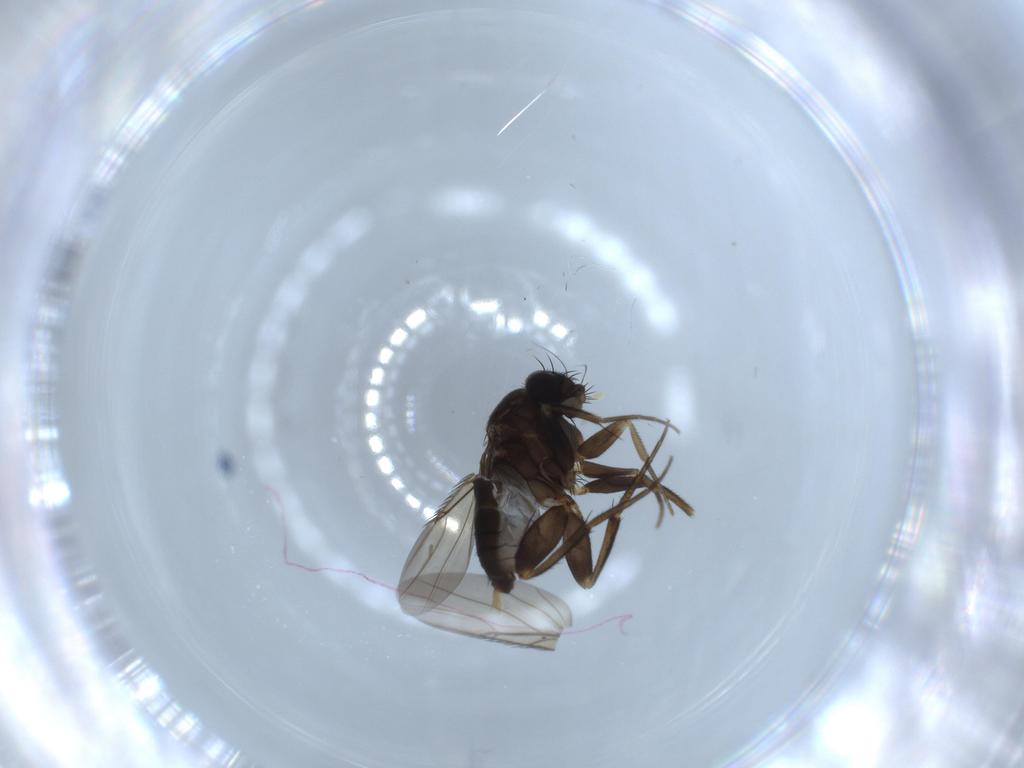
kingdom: Animalia
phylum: Arthropoda
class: Insecta
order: Diptera
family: Phoridae
